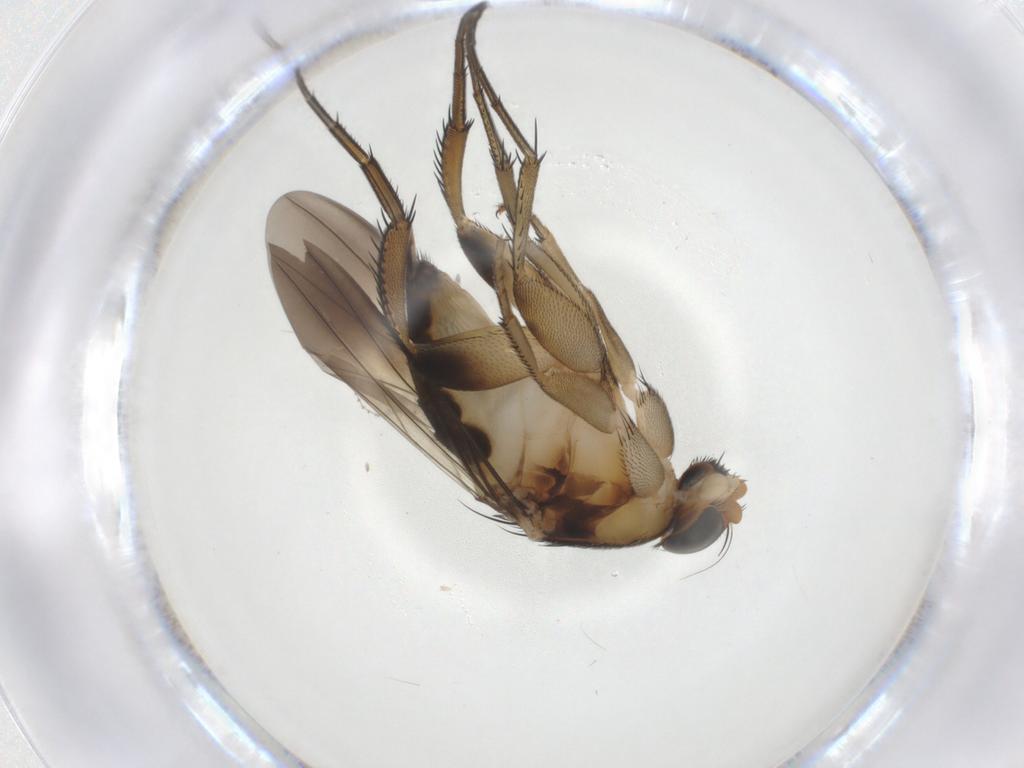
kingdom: Animalia
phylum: Arthropoda
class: Insecta
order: Diptera
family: Phoridae
